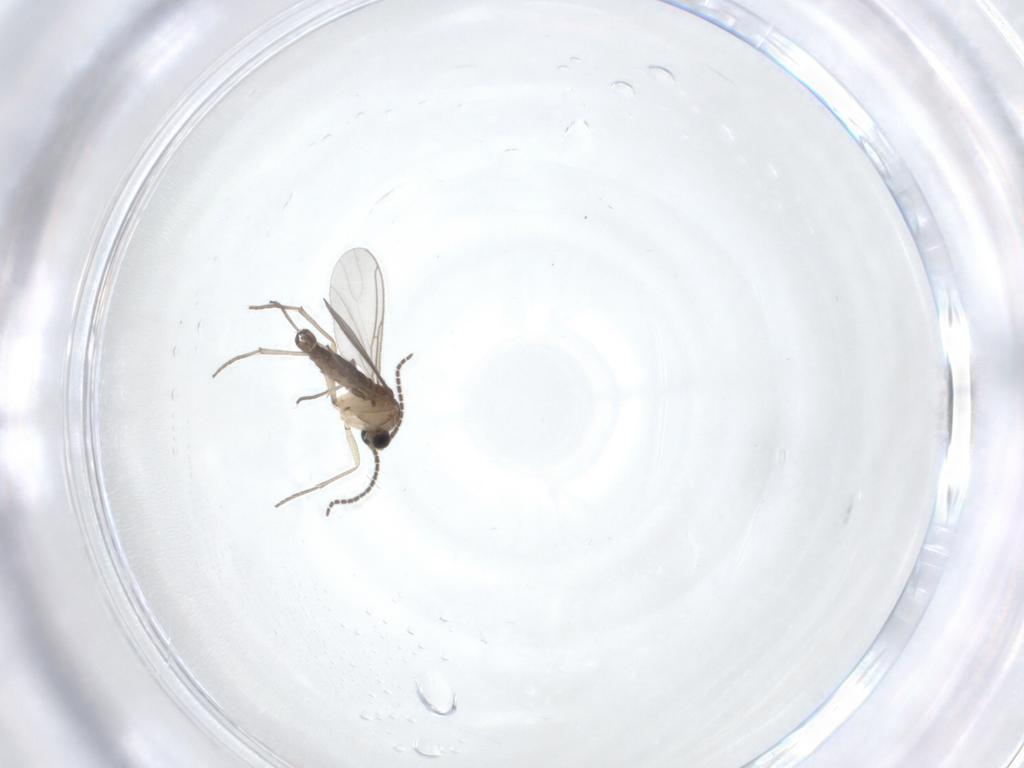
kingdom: Animalia
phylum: Arthropoda
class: Insecta
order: Diptera
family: Sciaridae
